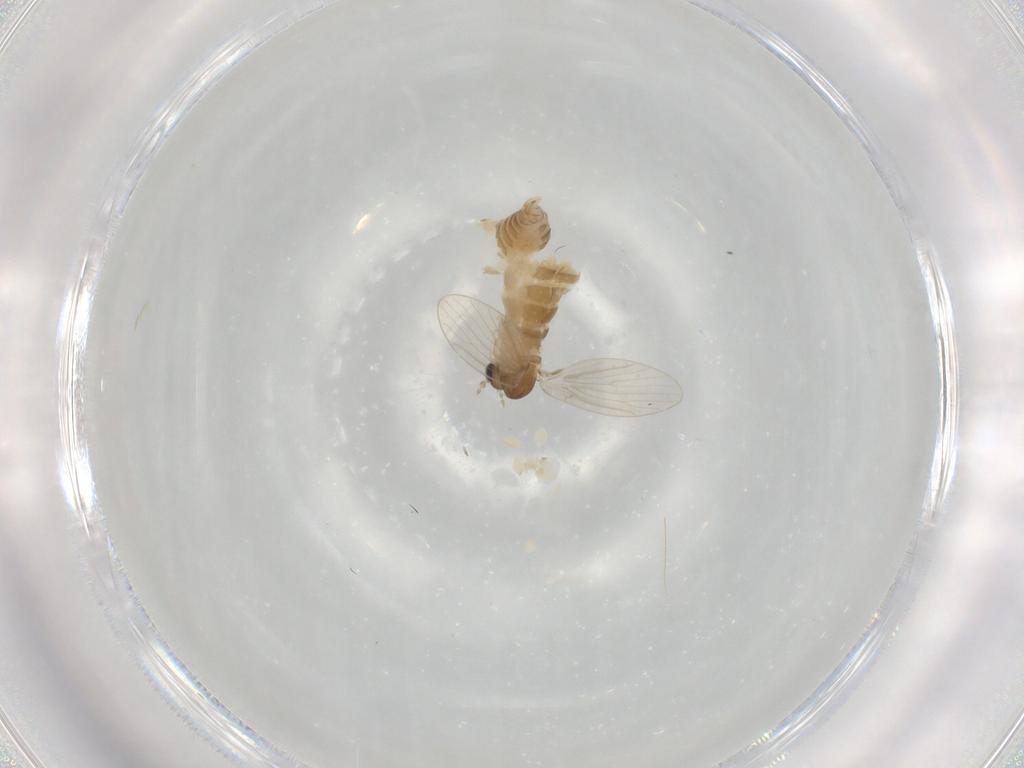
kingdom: Animalia
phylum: Arthropoda
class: Insecta
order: Diptera
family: Psychodidae
